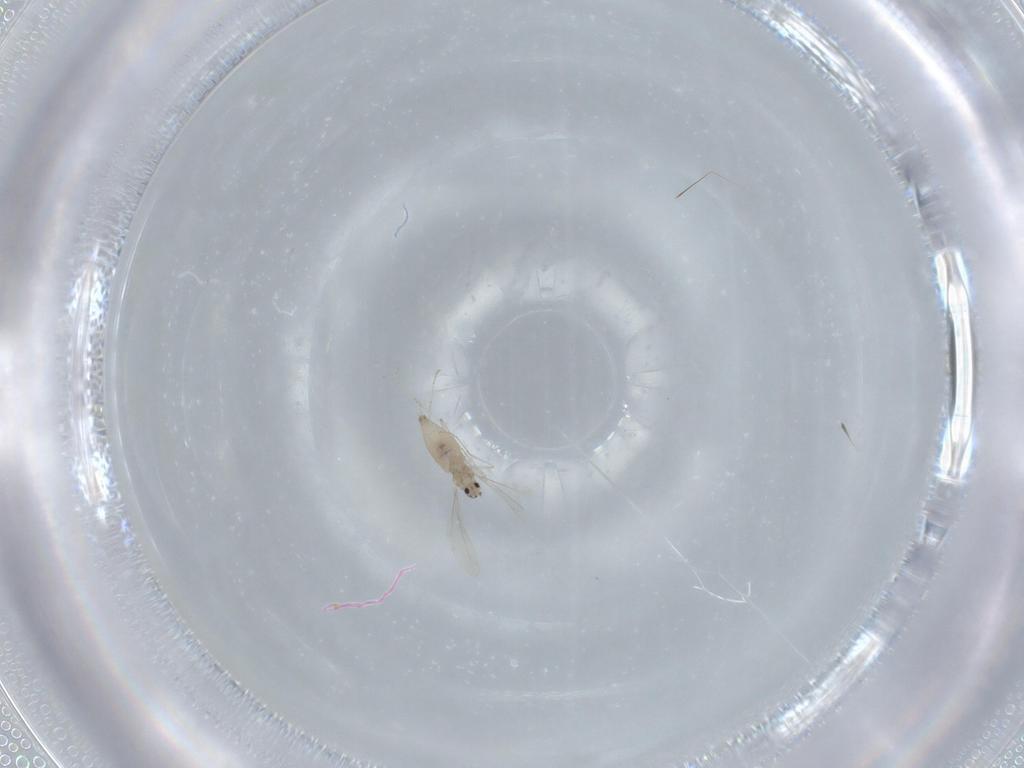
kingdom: Animalia
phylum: Arthropoda
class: Insecta
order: Diptera
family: Cecidomyiidae
